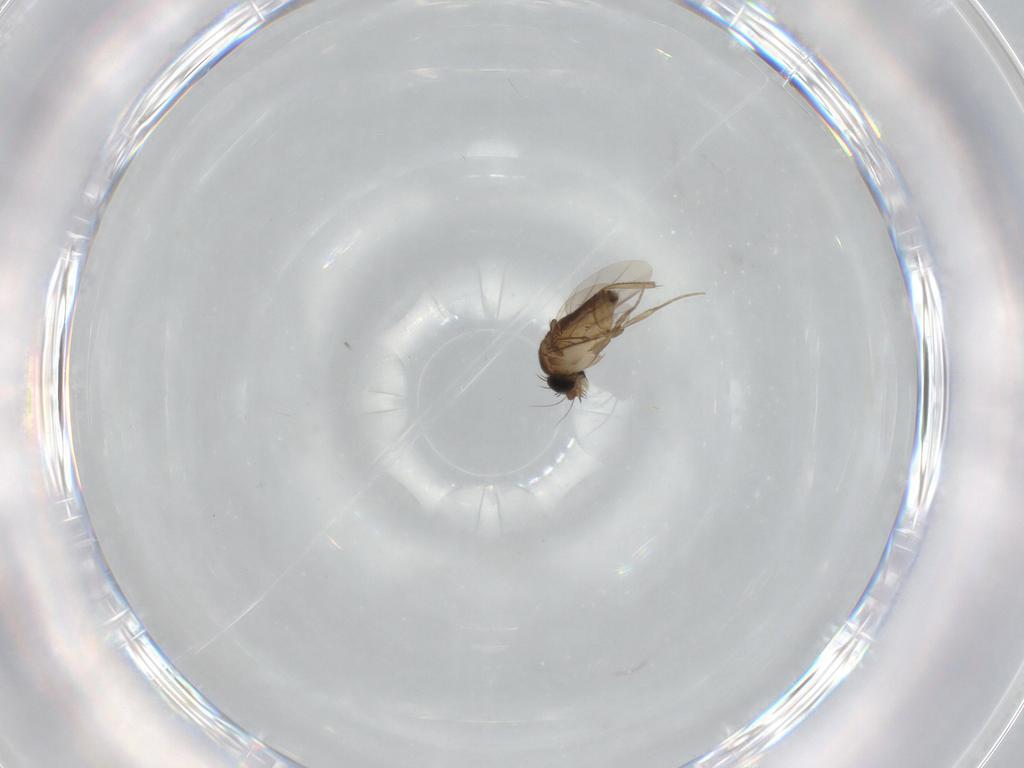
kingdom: Animalia
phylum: Arthropoda
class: Insecta
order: Diptera
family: Phoridae
